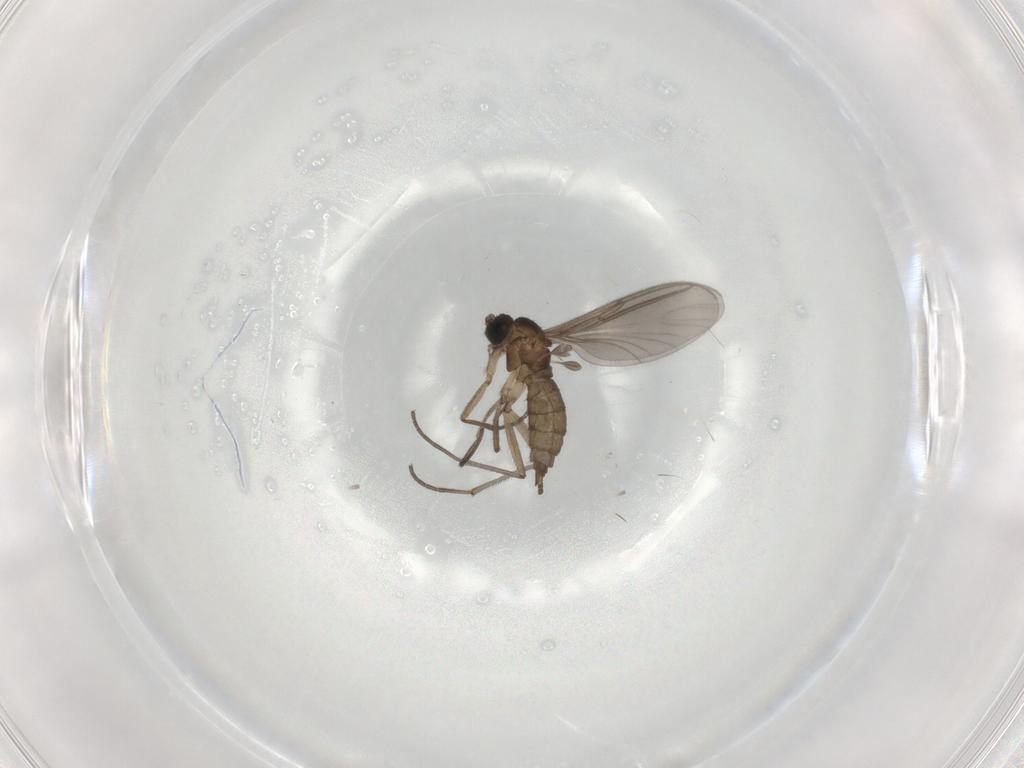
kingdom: Animalia
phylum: Arthropoda
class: Insecta
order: Diptera
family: Sciaridae
